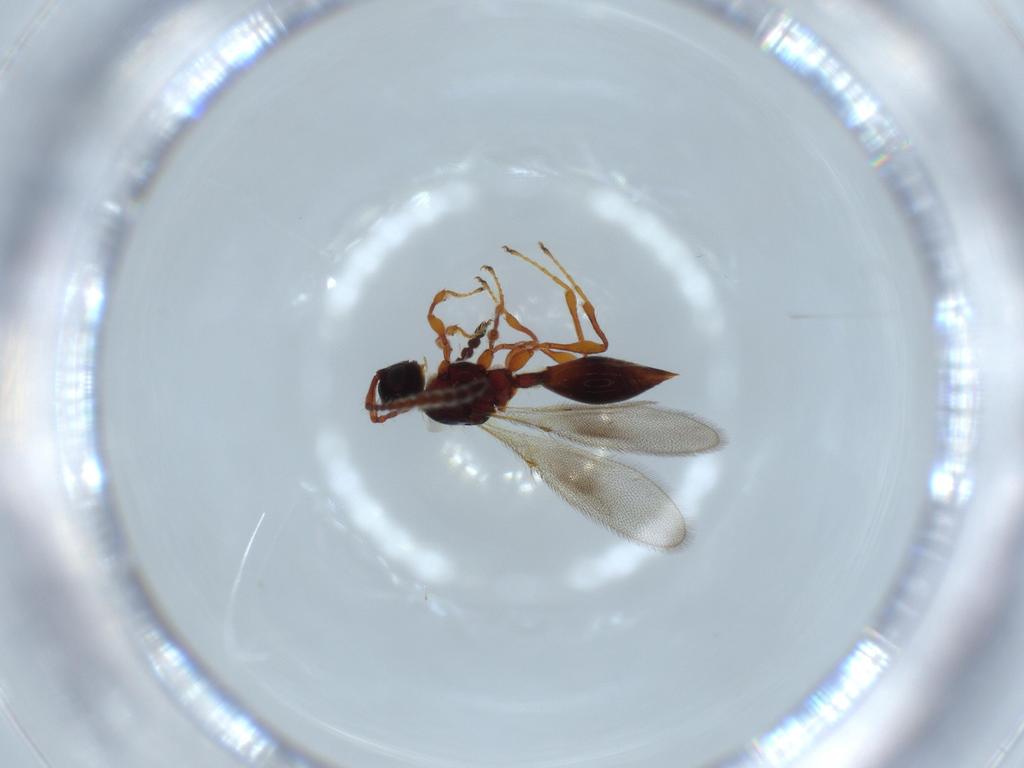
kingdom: Animalia
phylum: Arthropoda
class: Insecta
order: Hymenoptera
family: Diapriidae
